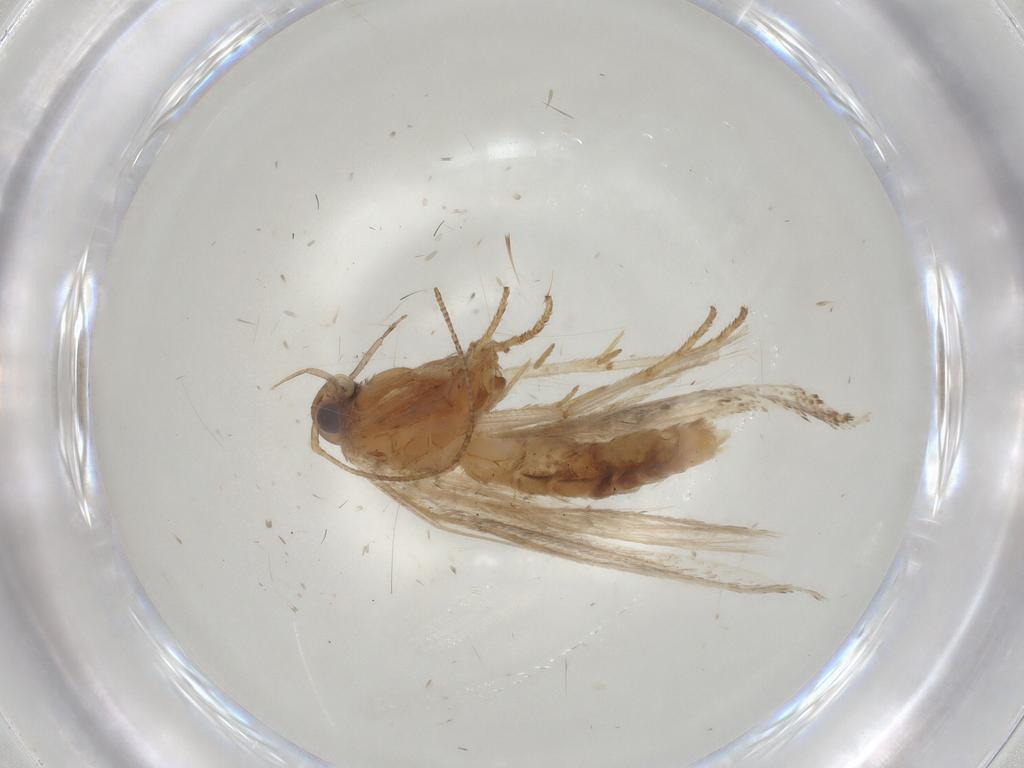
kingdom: Animalia
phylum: Arthropoda
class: Insecta
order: Lepidoptera
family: Gelechiidae
